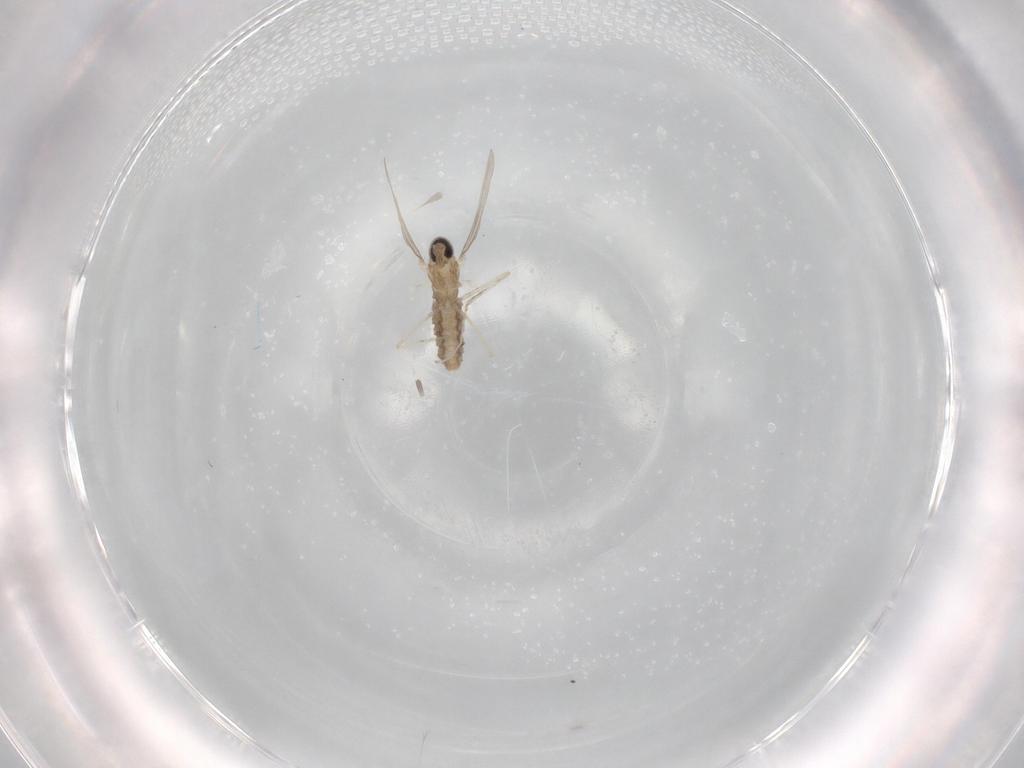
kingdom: Animalia
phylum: Arthropoda
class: Insecta
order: Diptera
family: Cecidomyiidae
